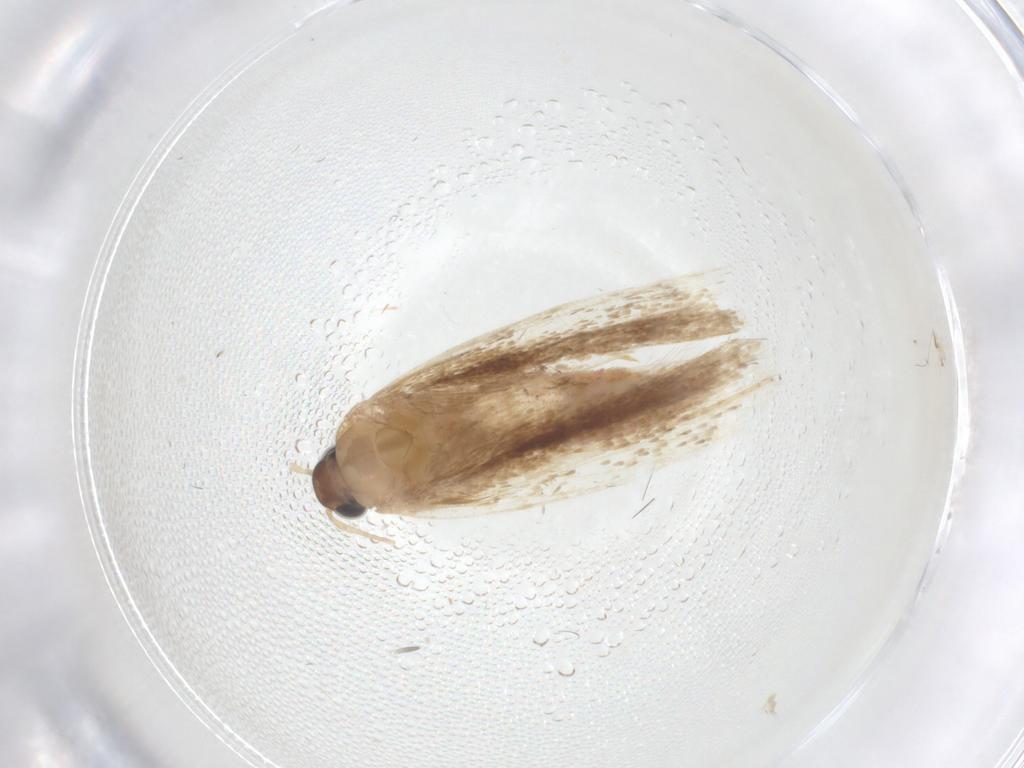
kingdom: Animalia
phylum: Arthropoda
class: Insecta
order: Lepidoptera
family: Gelechiidae
